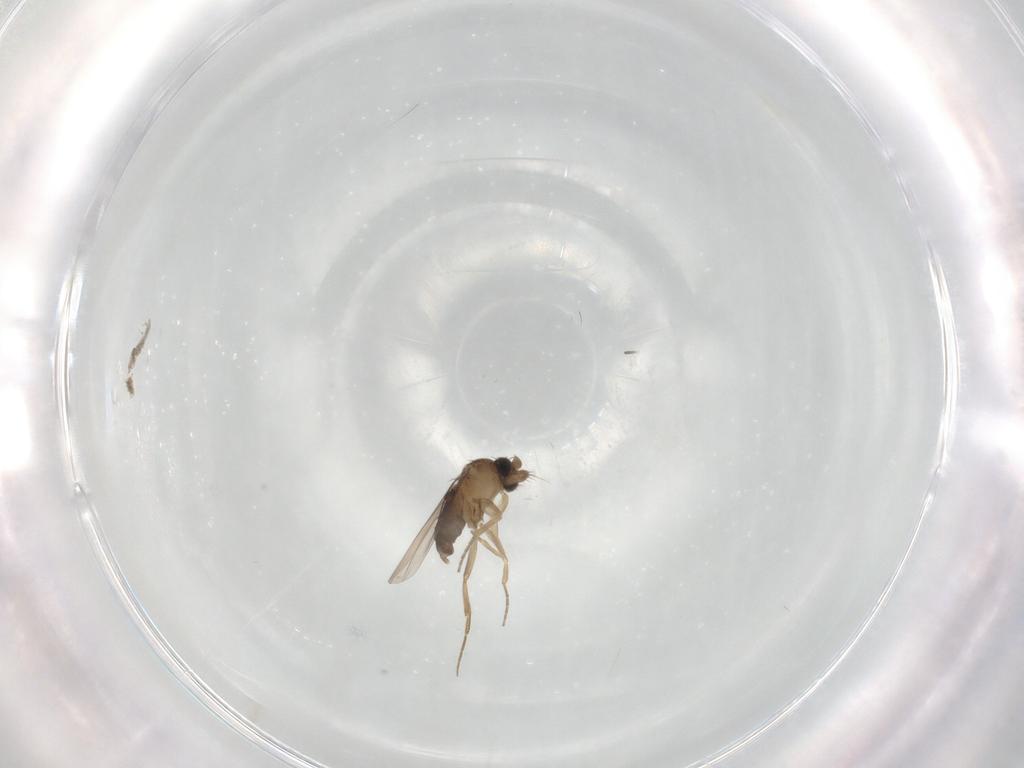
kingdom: Animalia
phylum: Arthropoda
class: Insecta
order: Diptera
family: Phoridae
